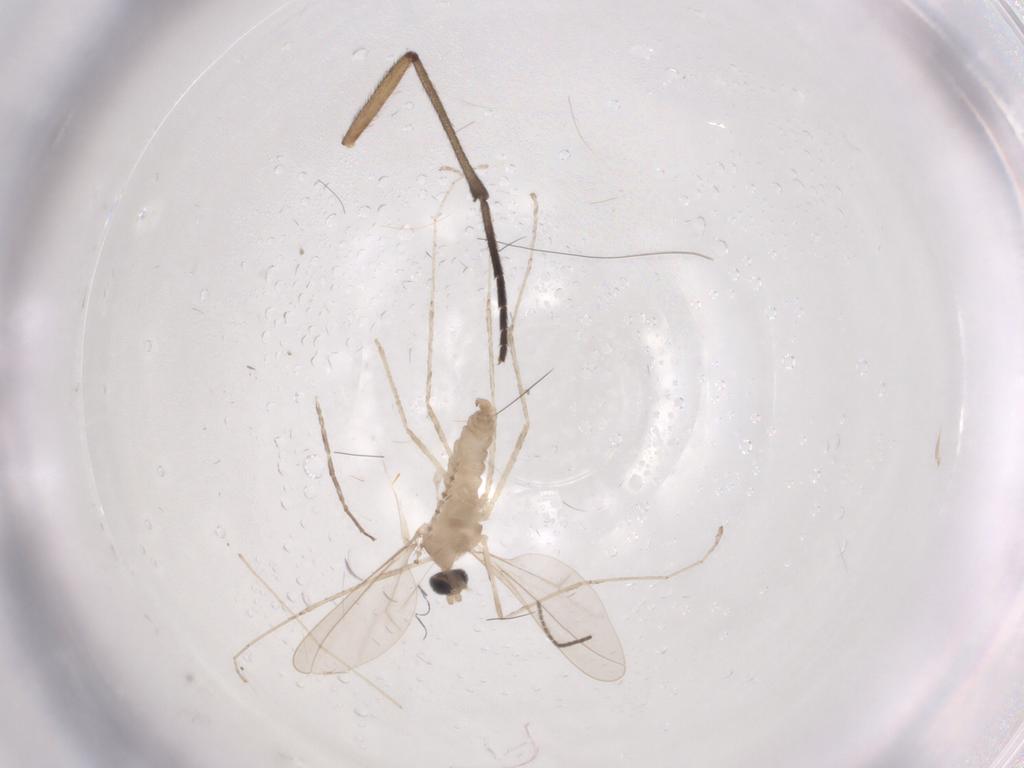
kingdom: Animalia
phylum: Arthropoda
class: Insecta
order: Diptera
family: Cecidomyiidae
